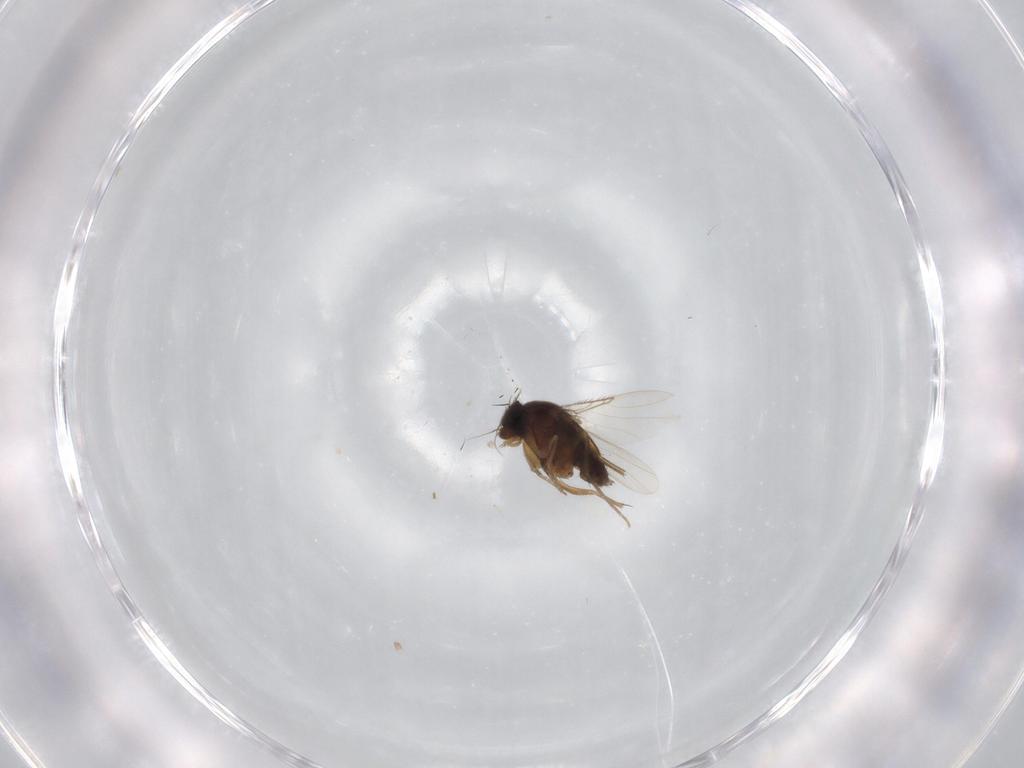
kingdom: Animalia
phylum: Arthropoda
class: Insecta
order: Diptera
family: Dolichopodidae
